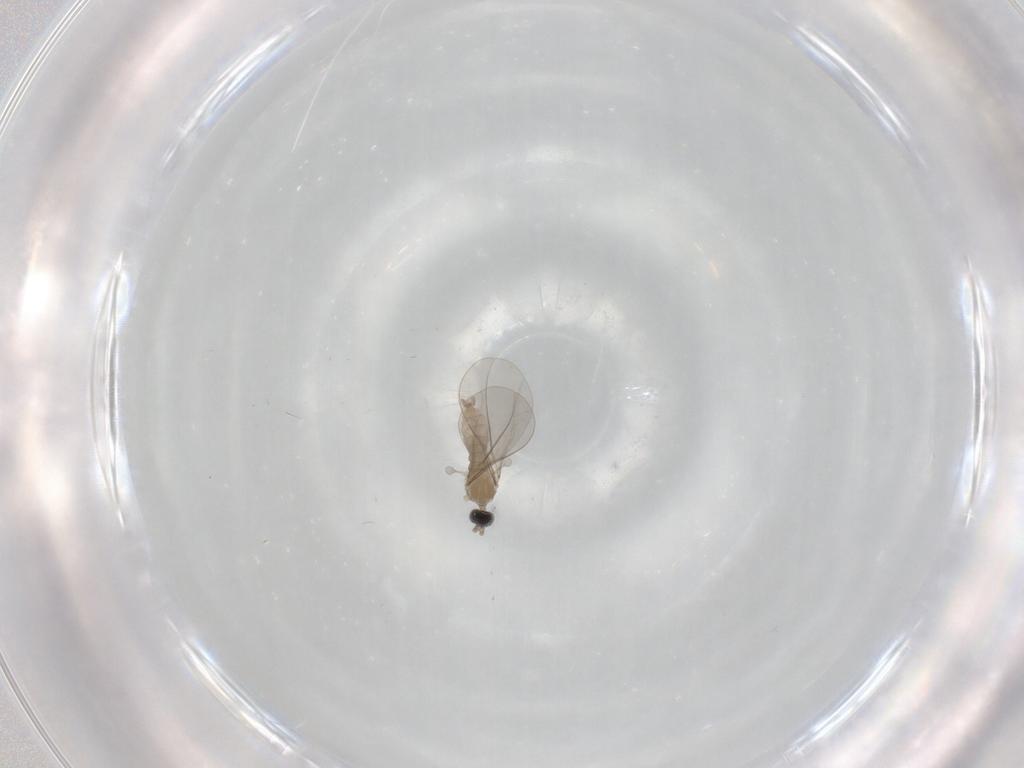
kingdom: Animalia
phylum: Arthropoda
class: Insecta
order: Diptera
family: Cecidomyiidae
